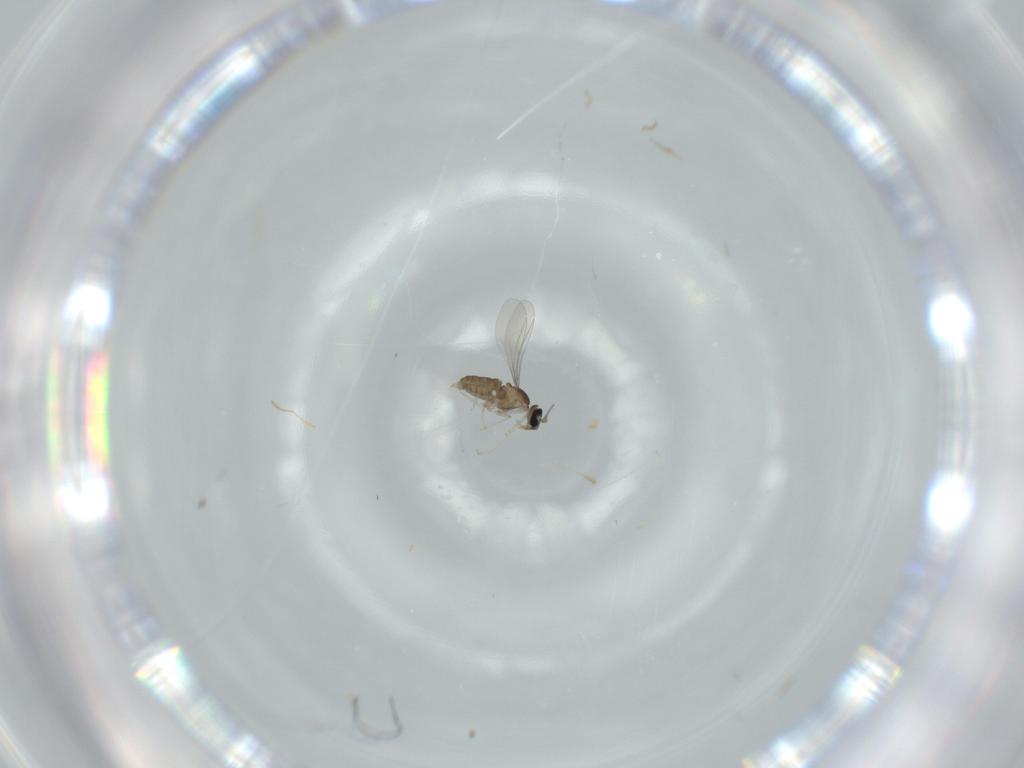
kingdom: Animalia
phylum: Arthropoda
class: Insecta
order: Diptera
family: Cecidomyiidae
